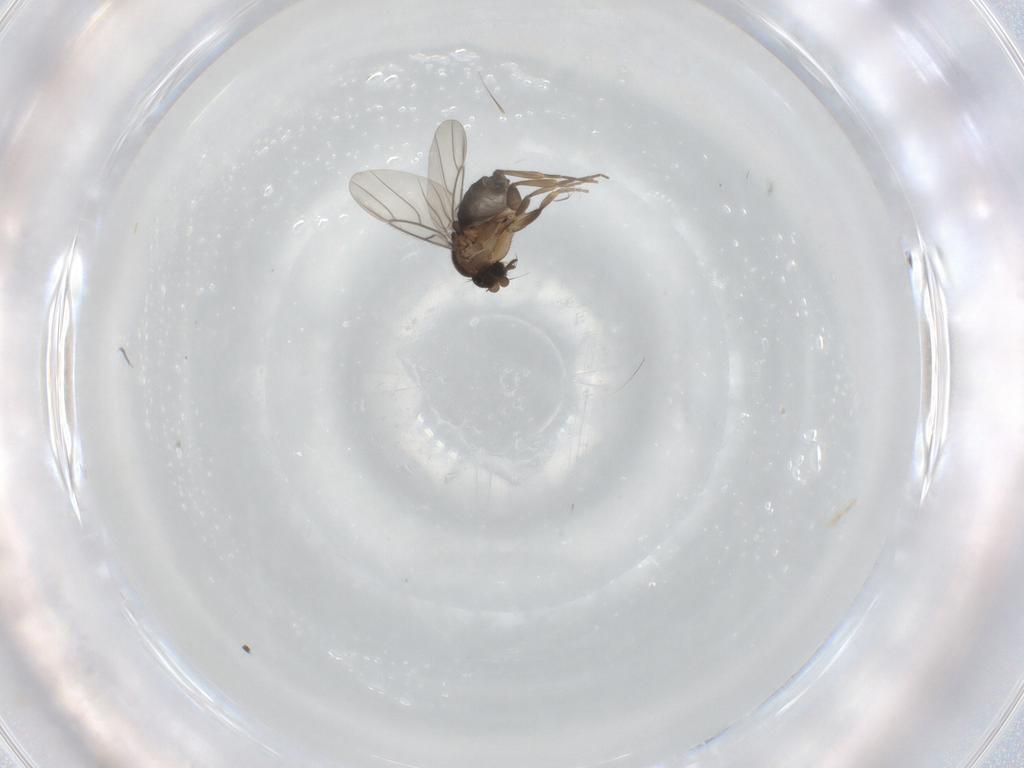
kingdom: Animalia
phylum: Arthropoda
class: Insecta
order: Diptera
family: Phoridae
